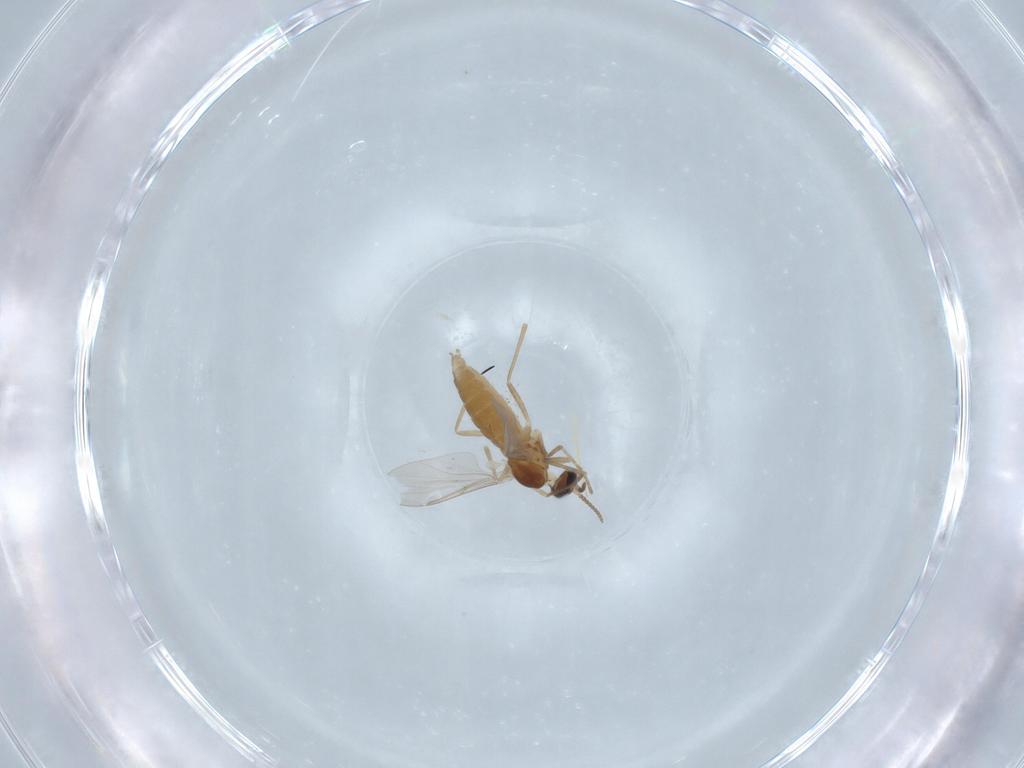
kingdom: Animalia
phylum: Arthropoda
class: Insecta
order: Diptera
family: Cecidomyiidae
